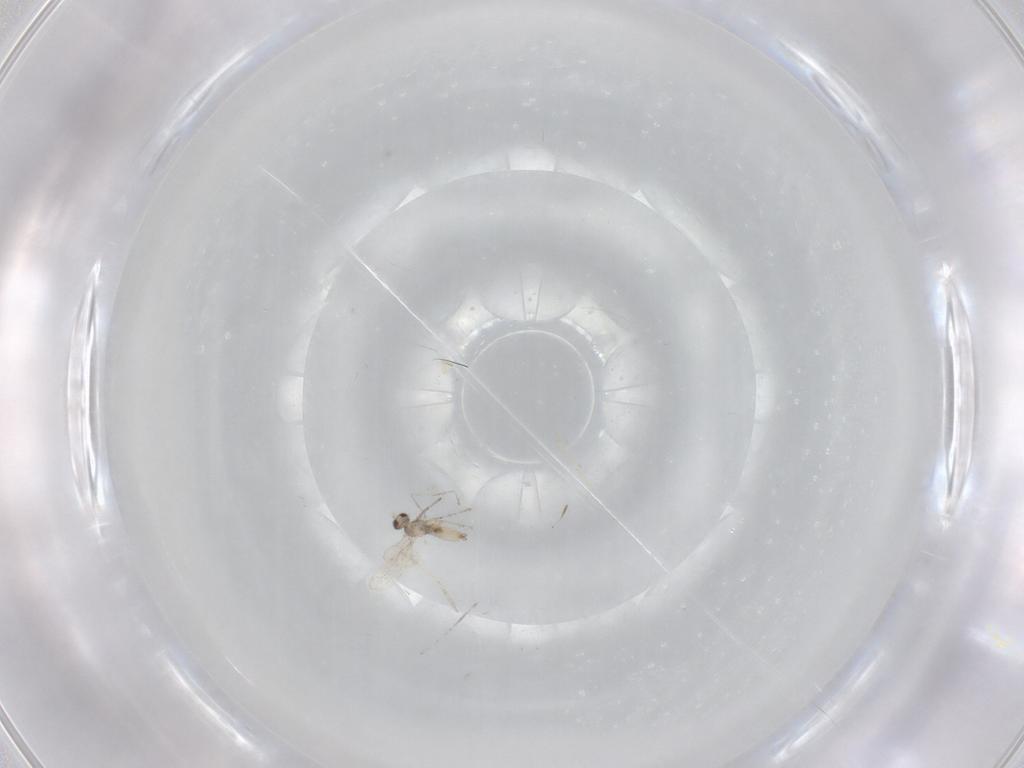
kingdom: Animalia
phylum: Arthropoda
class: Insecta
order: Diptera
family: Cecidomyiidae
